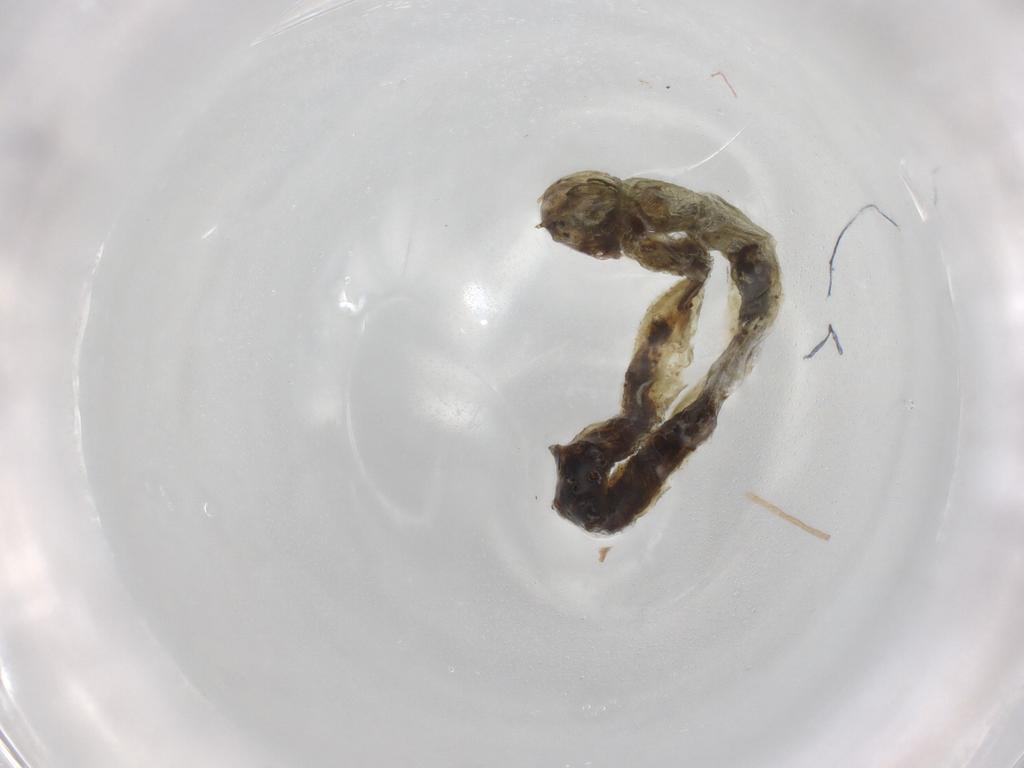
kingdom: Animalia
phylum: Arthropoda
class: Insecta
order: Diptera
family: Chironomidae
